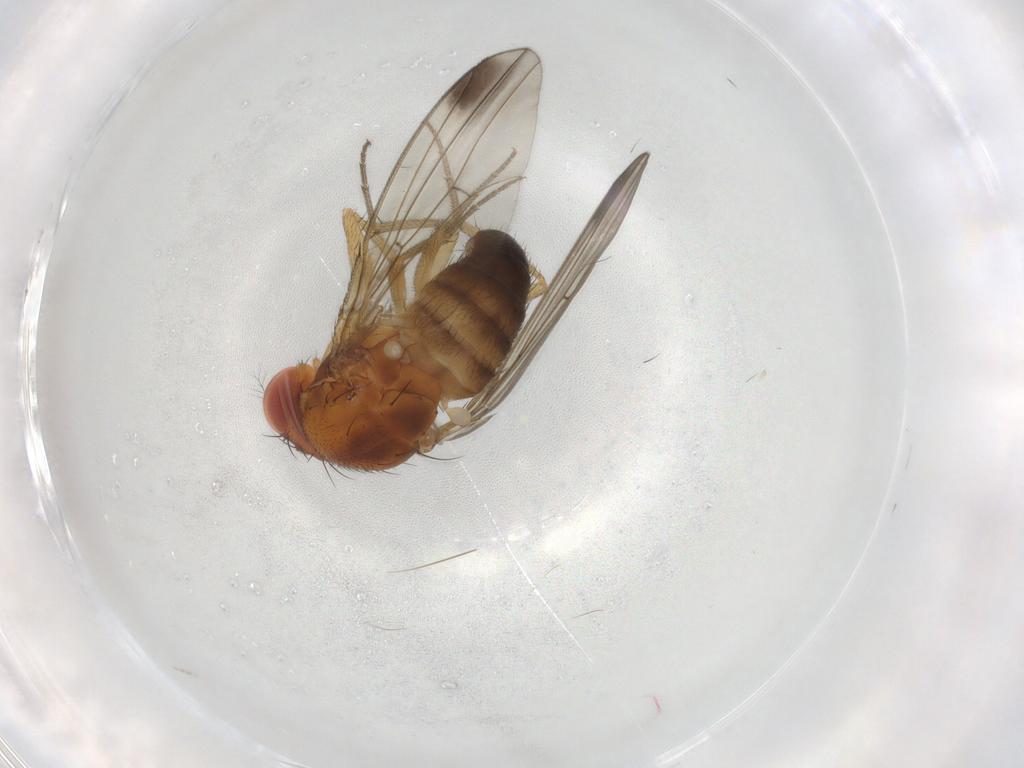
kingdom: Animalia
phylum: Arthropoda
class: Insecta
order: Diptera
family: Drosophilidae
